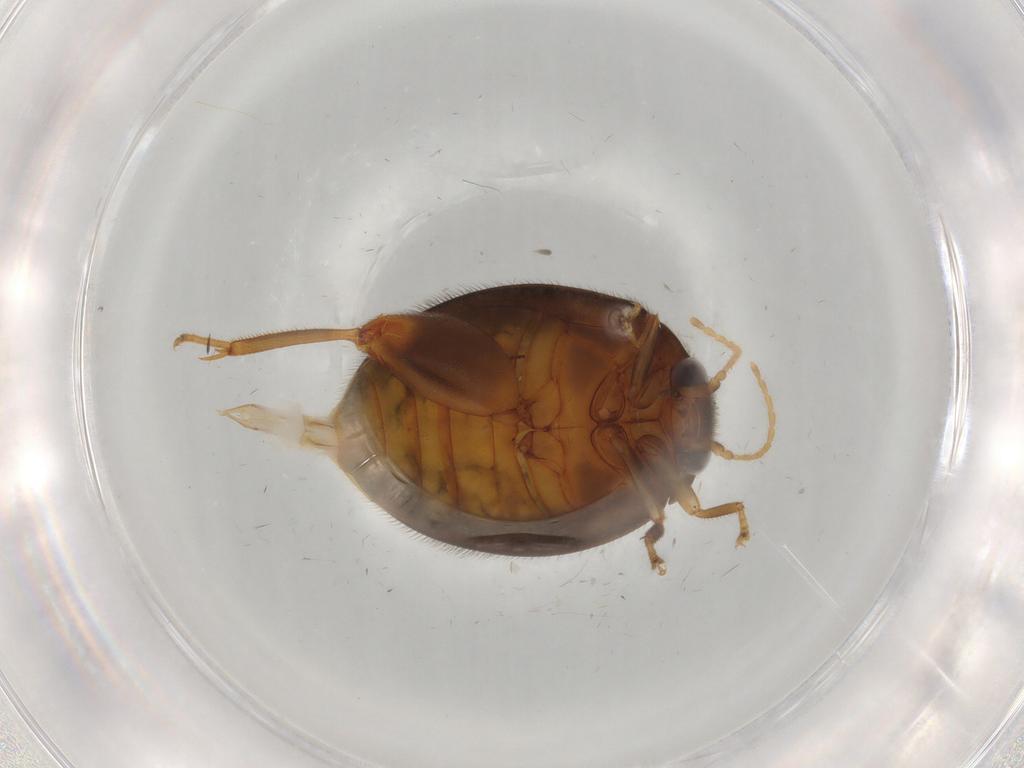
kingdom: Animalia
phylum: Arthropoda
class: Insecta
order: Coleoptera
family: Scirtidae
